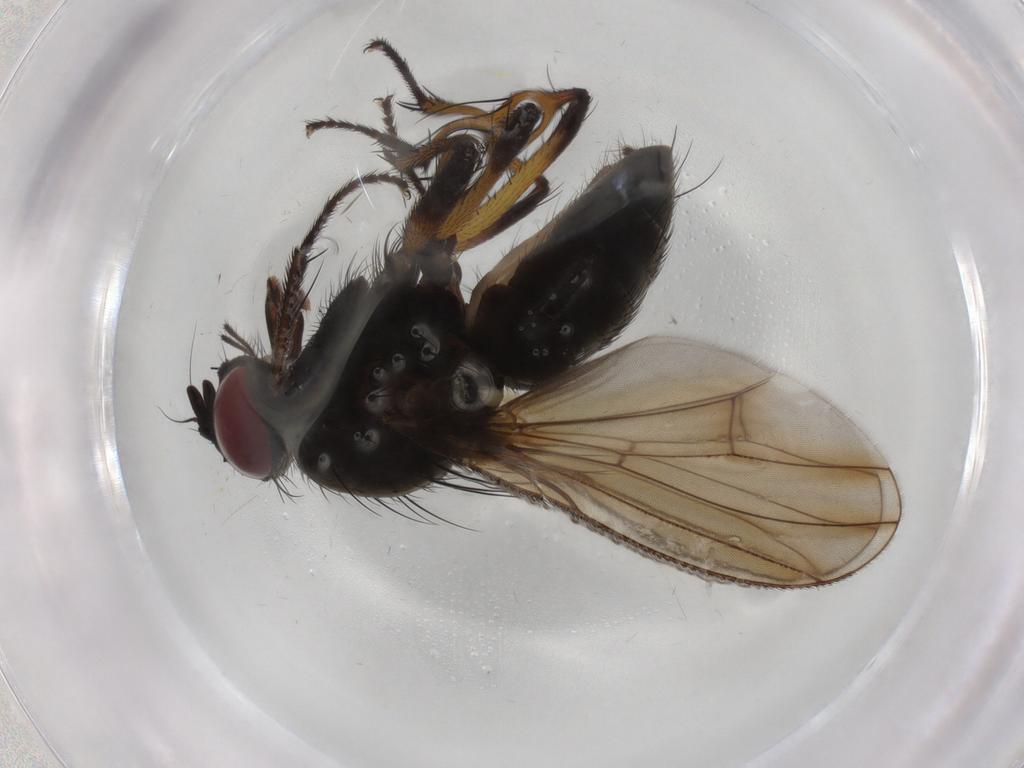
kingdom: Animalia
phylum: Arthropoda
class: Insecta
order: Diptera
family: Muscidae
